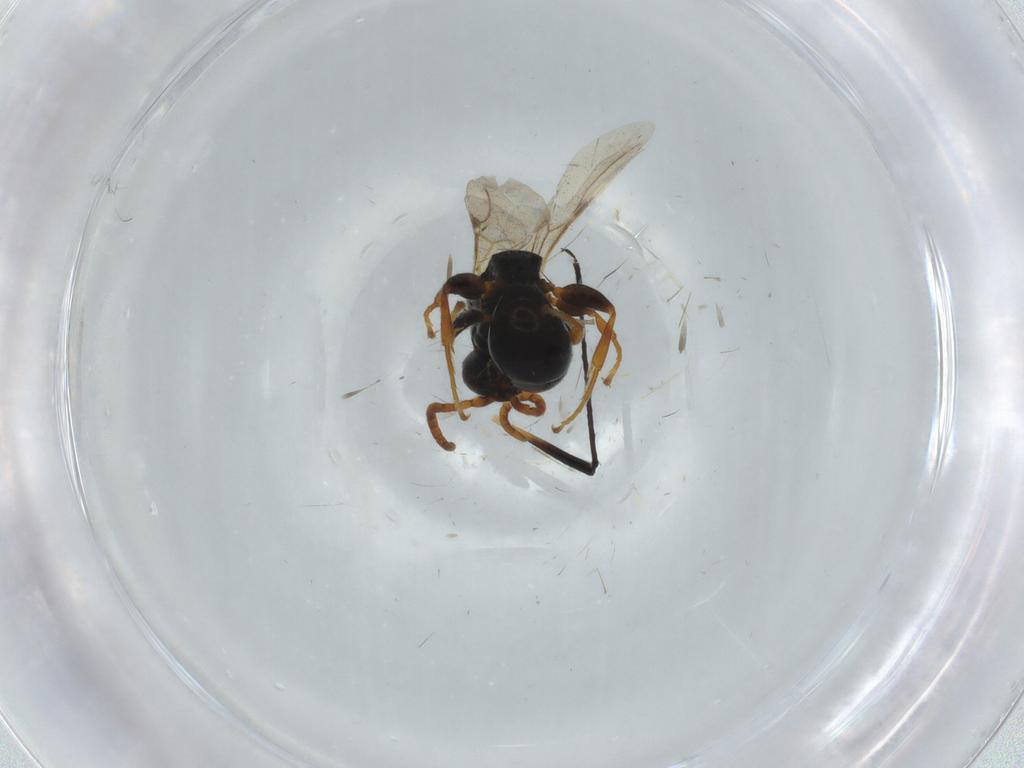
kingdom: Animalia
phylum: Arthropoda
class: Insecta
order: Hymenoptera
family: Bethylidae
